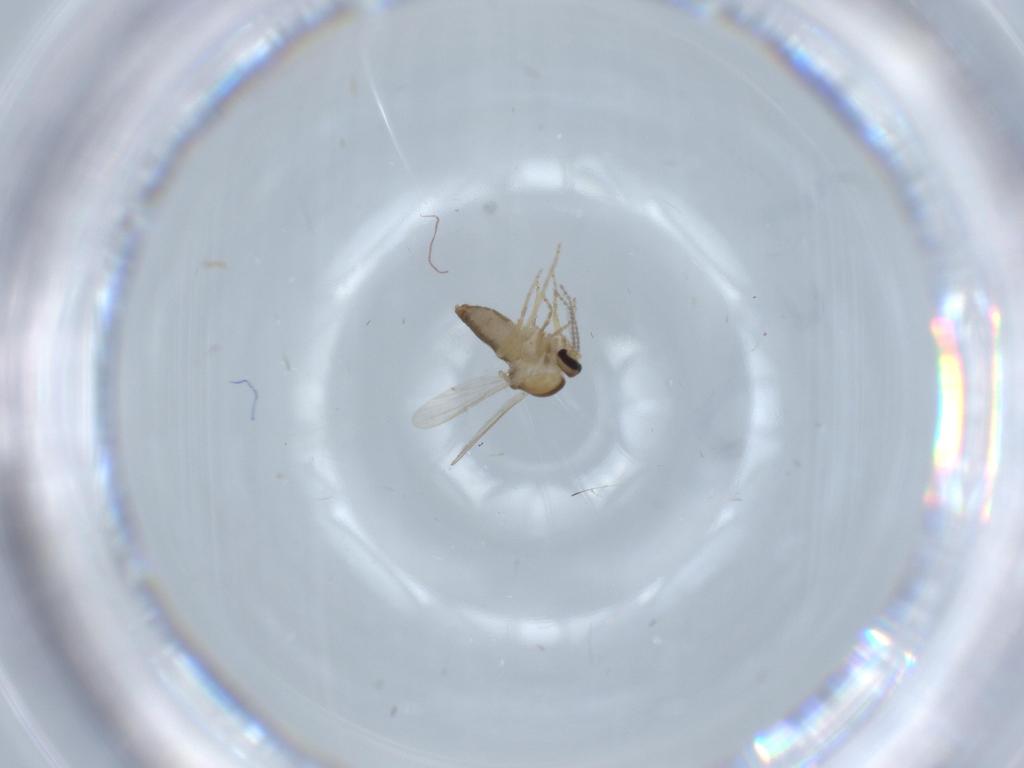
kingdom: Animalia
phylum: Arthropoda
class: Insecta
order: Diptera
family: Ceratopogonidae
